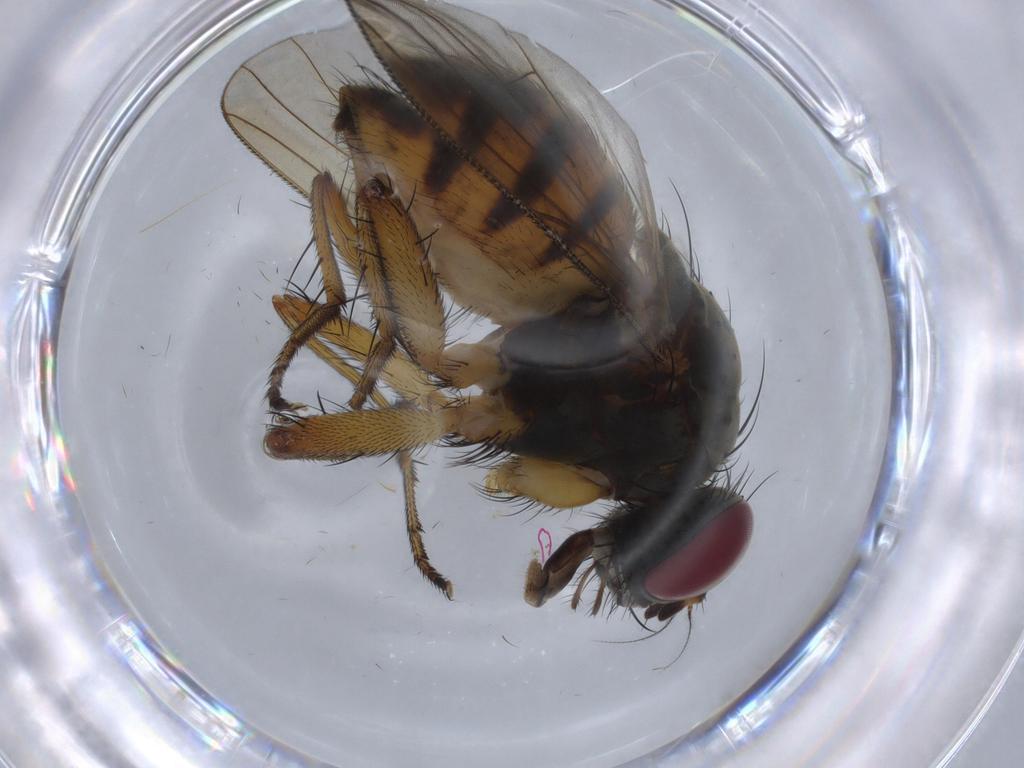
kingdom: Animalia
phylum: Arthropoda
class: Insecta
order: Diptera
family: Muscidae
